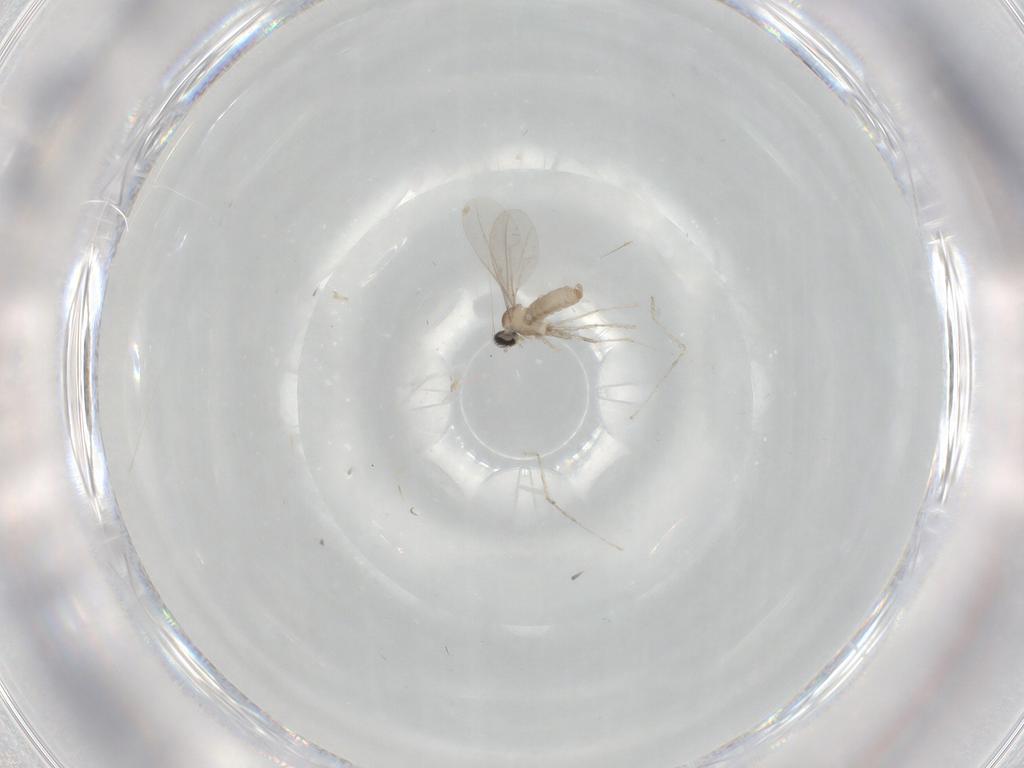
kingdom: Animalia
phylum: Arthropoda
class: Insecta
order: Diptera
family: Cecidomyiidae
